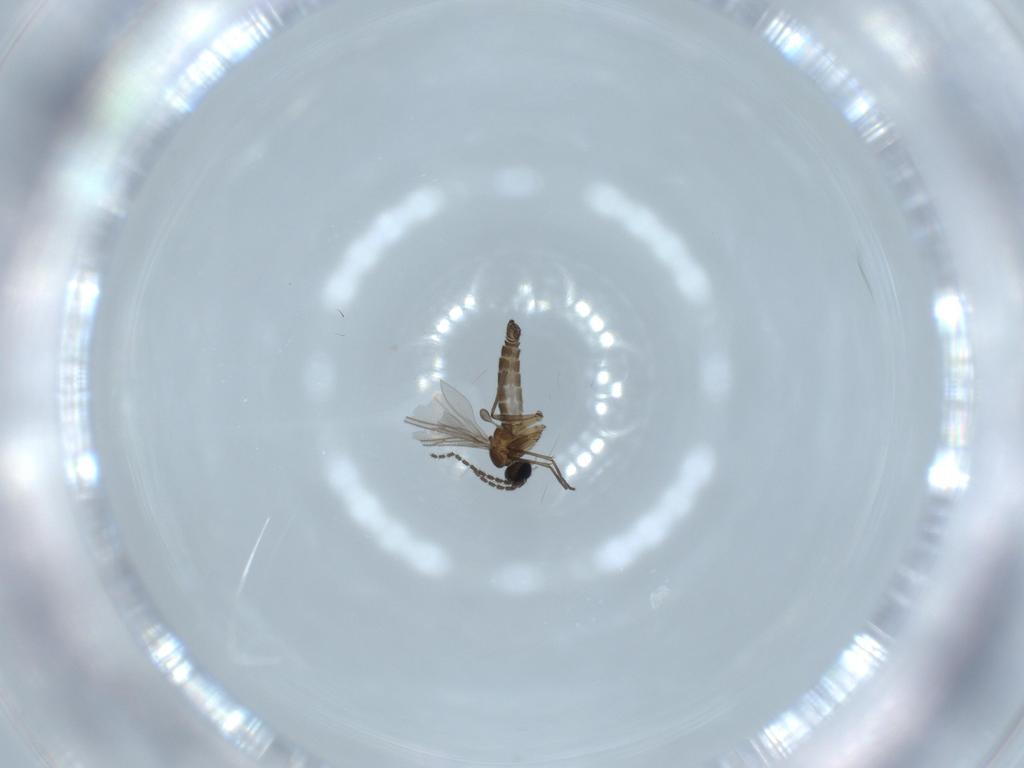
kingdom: Animalia
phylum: Arthropoda
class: Insecta
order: Diptera
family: Sciaridae
